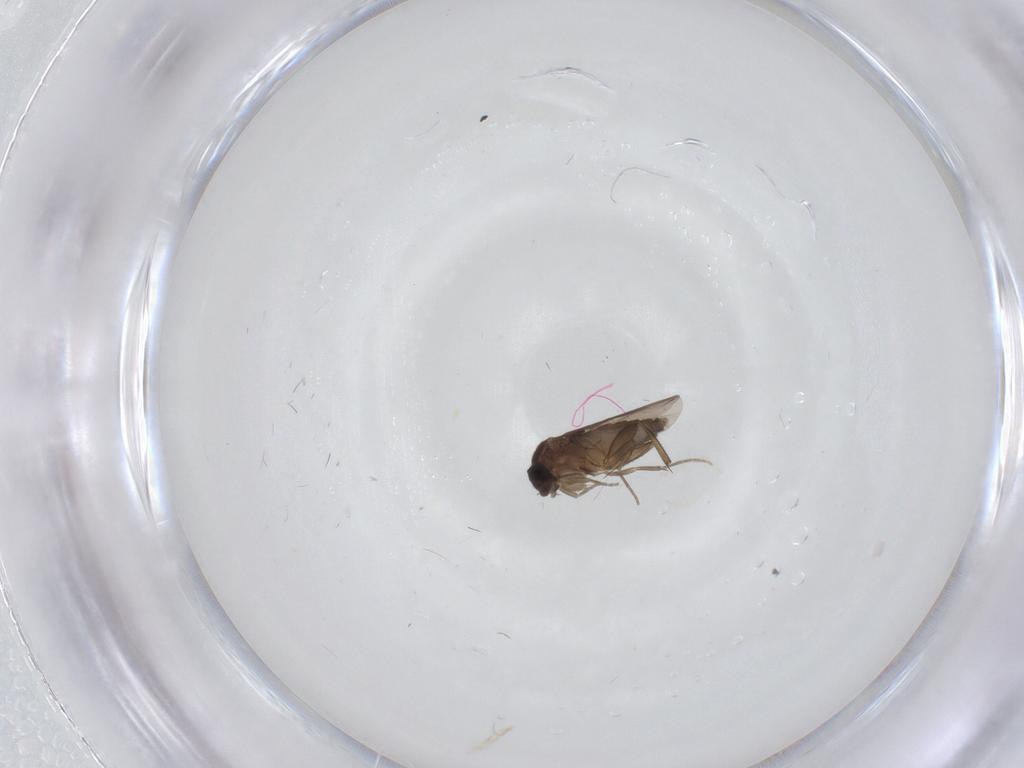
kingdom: Animalia
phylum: Arthropoda
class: Insecta
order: Diptera
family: Phoridae
